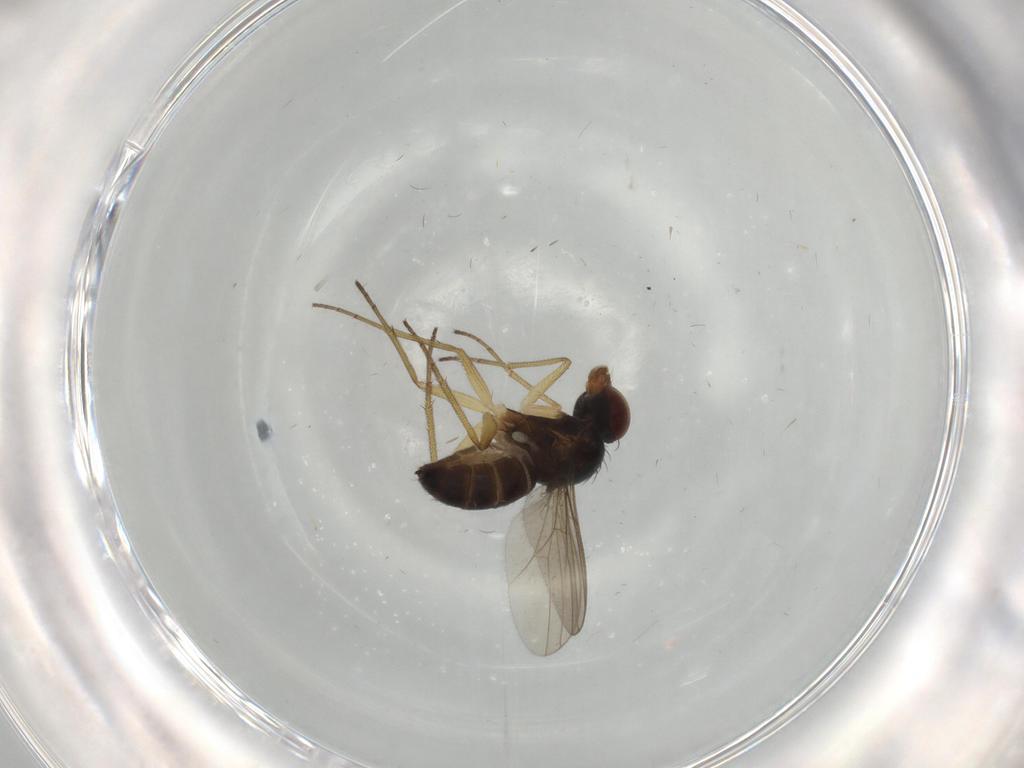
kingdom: Animalia
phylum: Arthropoda
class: Insecta
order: Diptera
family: Dolichopodidae
